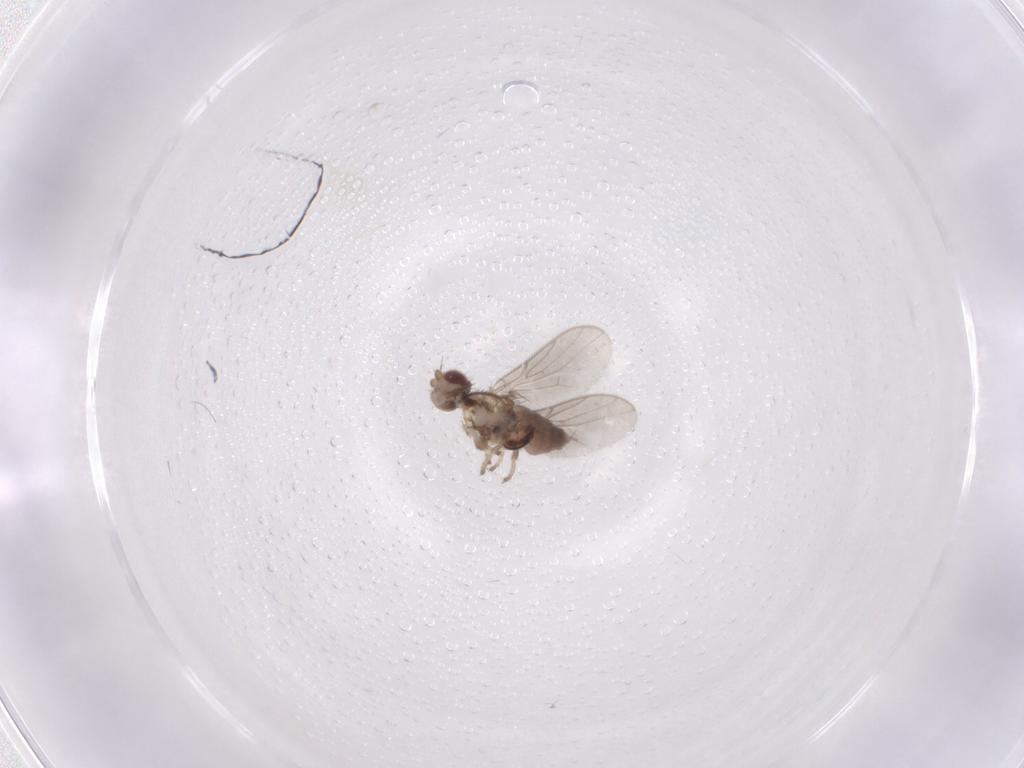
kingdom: Animalia
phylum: Arthropoda
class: Insecta
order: Diptera
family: Chloropidae
